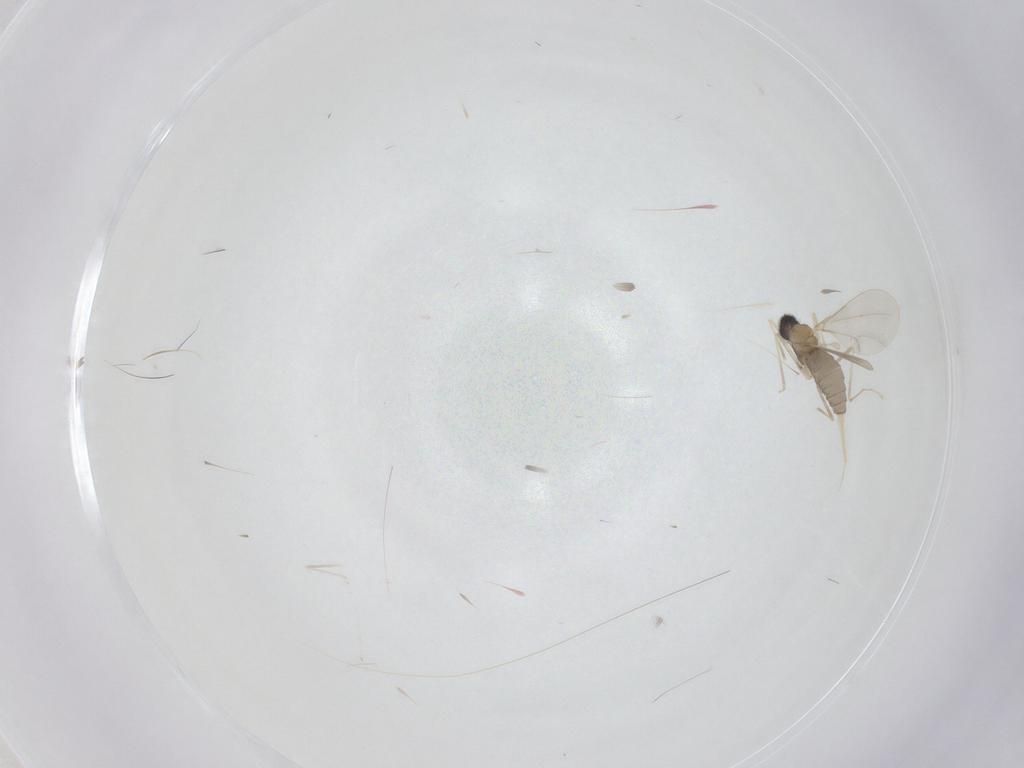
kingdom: Animalia
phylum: Arthropoda
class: Insecta
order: Diptera
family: Cecidomyiidae
